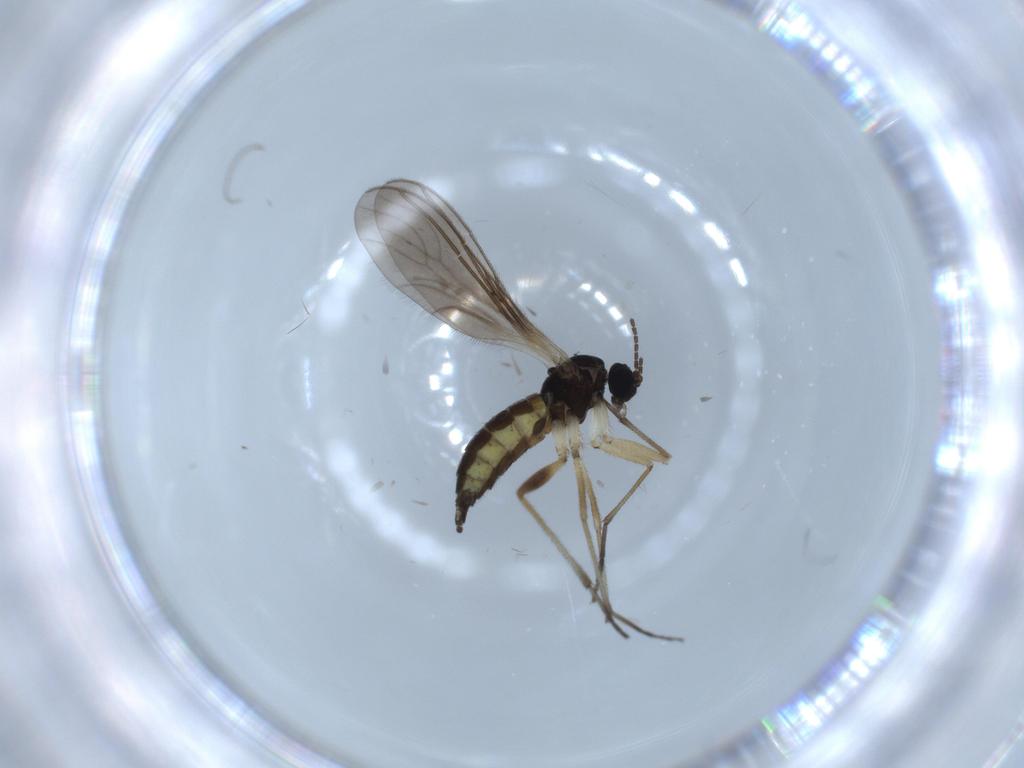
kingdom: Animalia
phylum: Arthropoda
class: Insecta
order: Diptera
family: Sciaridae
